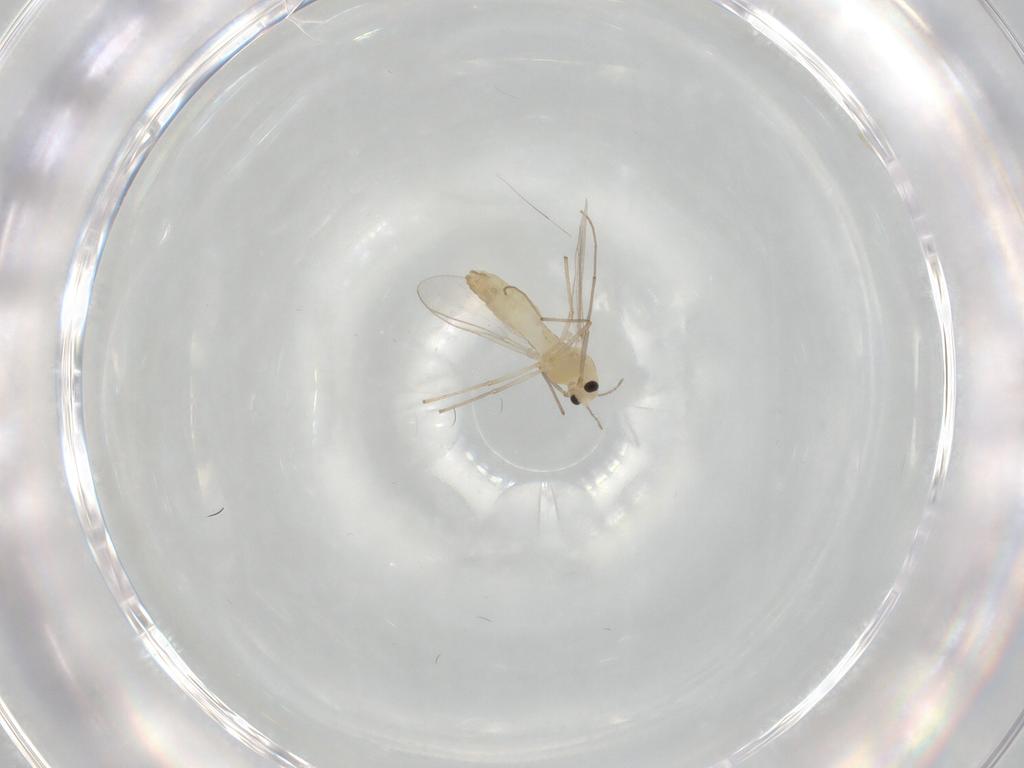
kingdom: Animalia
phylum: Arthropoda
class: Insecta
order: Diptera
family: Chironomidae
